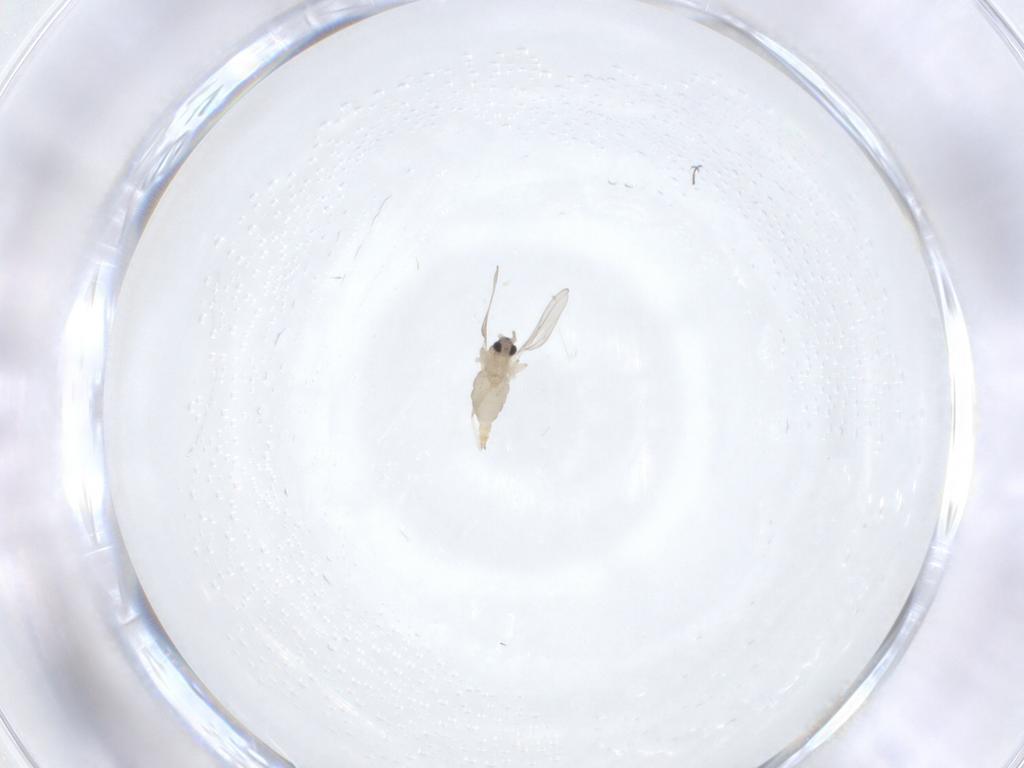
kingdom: Animalia
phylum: Arthropoda
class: Insecta
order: Diptera
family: Cecidomyiidae
